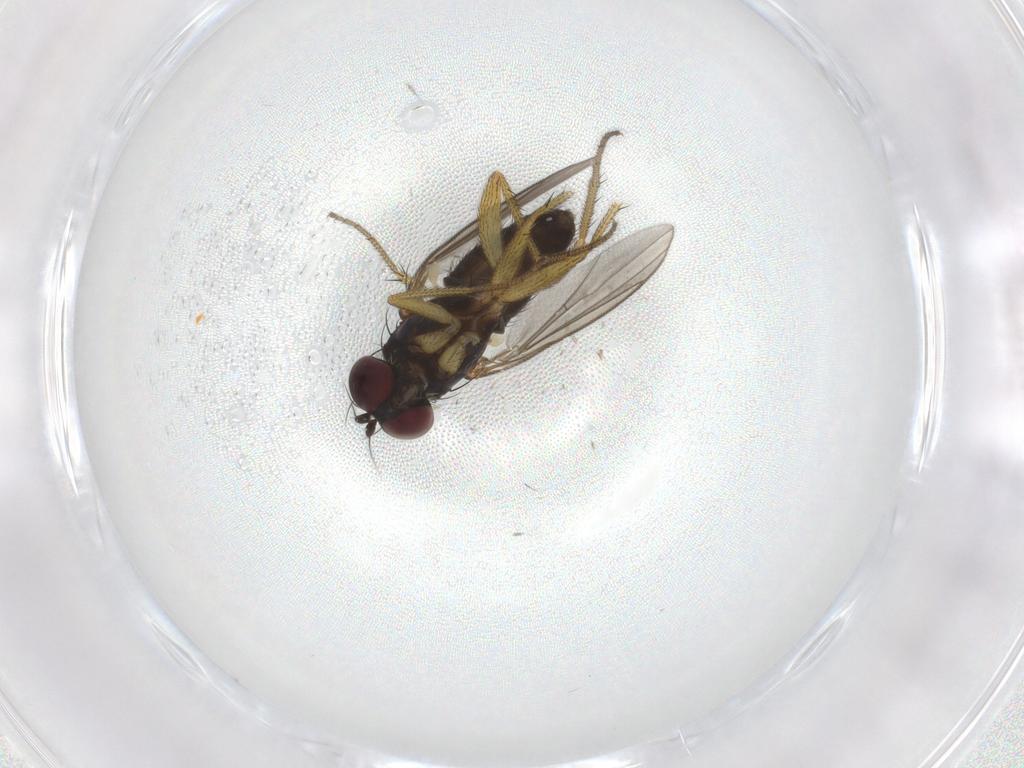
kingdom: Animalia
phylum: Arthropoda
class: Insecta
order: Diptera
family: Dolichopodidae
